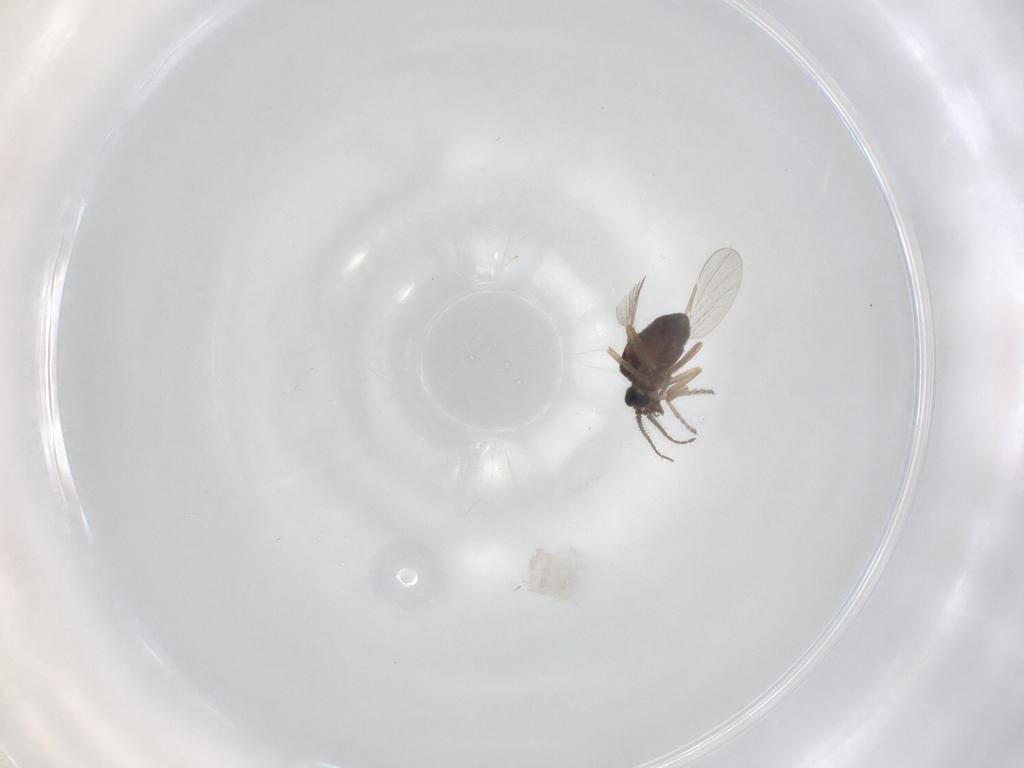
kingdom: Animalia
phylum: Arthropoda
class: Insecta
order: Diptera
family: Ceratopogonidae
